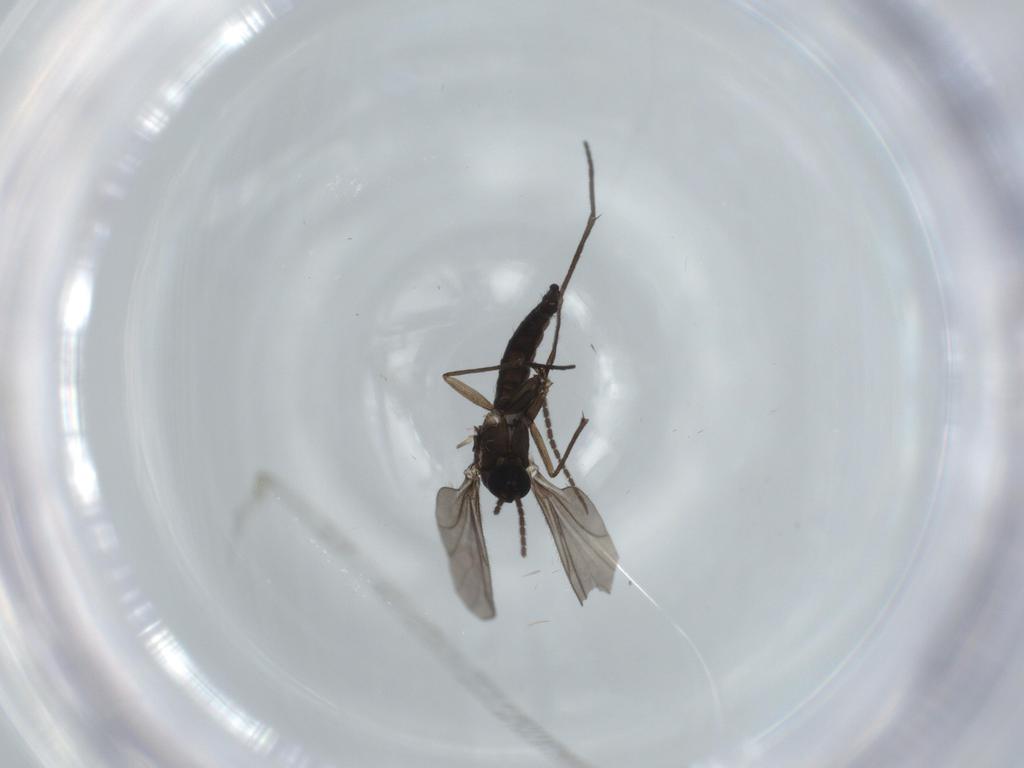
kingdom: Animalia
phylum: Arthropoda
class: Insecta
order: Diptera
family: Sciaridae
